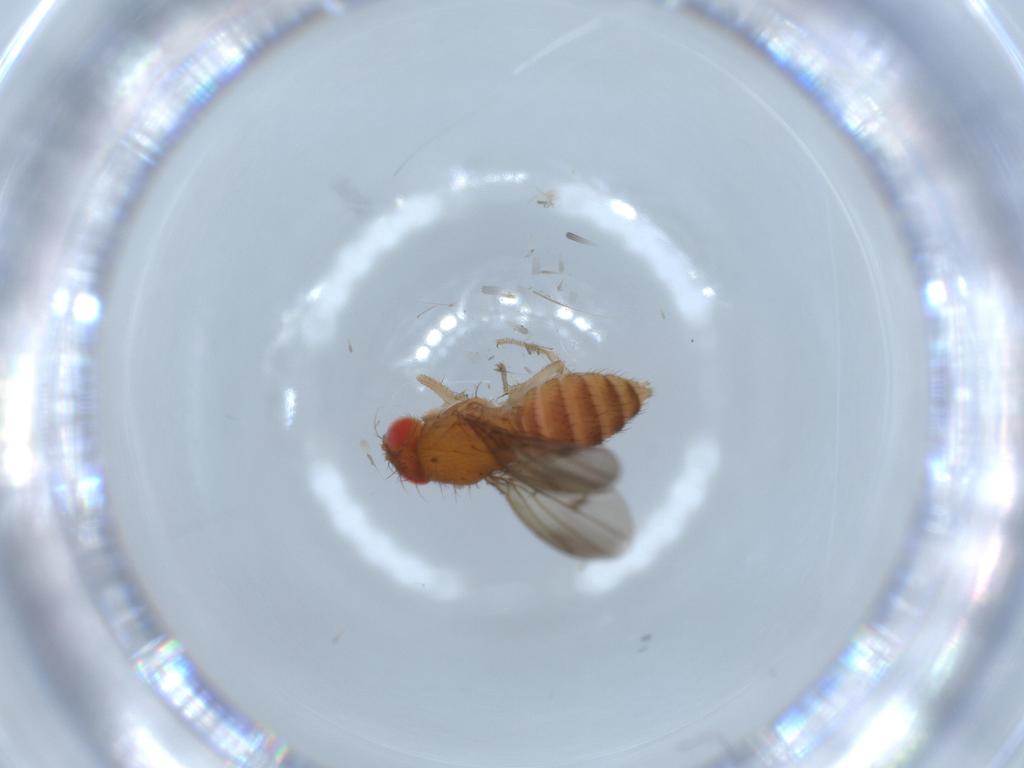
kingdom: Animalia
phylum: Arthropoda
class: Insecta
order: Diptera
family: Drosophilidae
